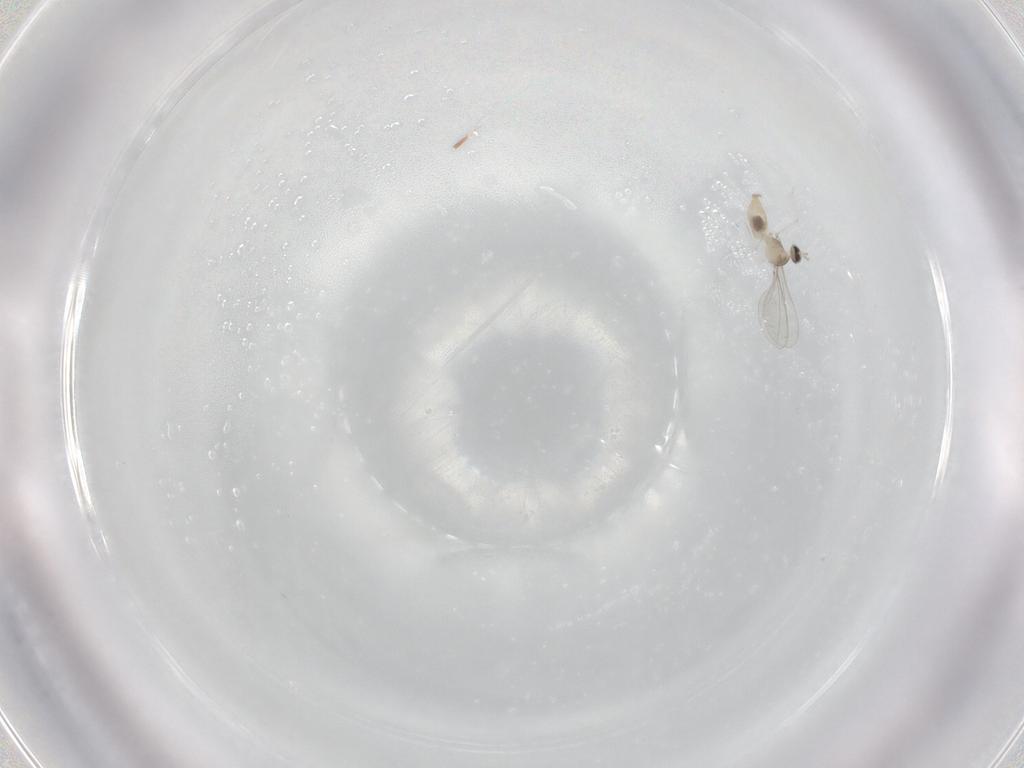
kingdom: Animalia
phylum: Arthropoda
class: Insecta
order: Diptera
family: Cecidomyiidae
